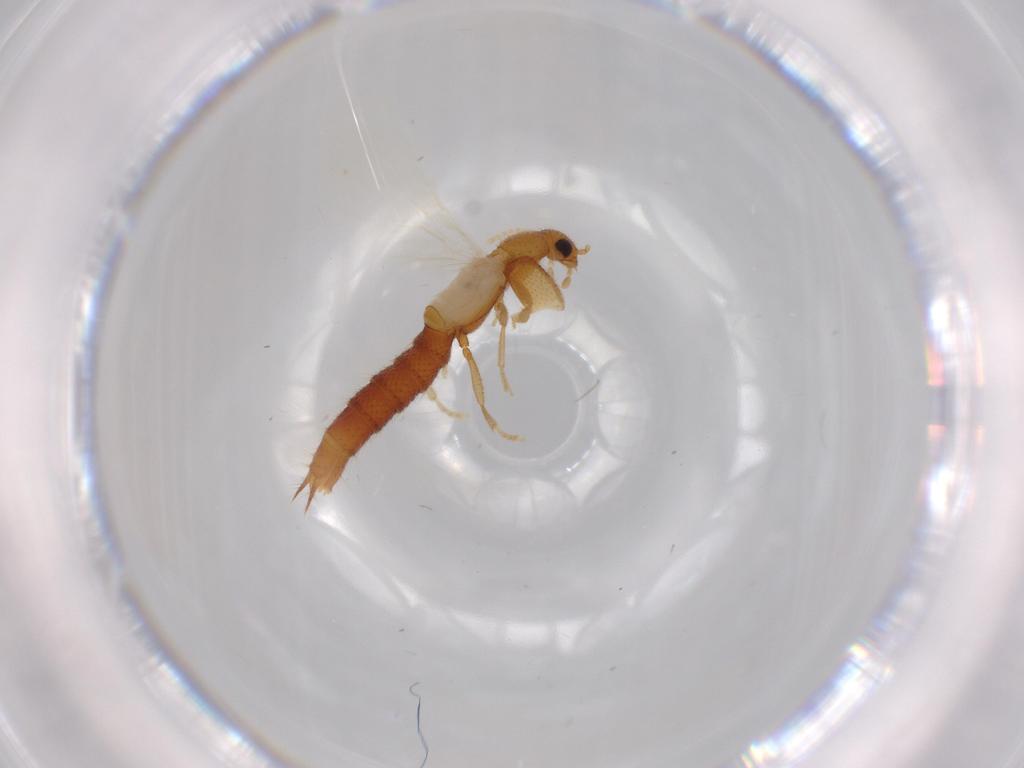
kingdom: Animalia
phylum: Arthropoda
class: Insecta
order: Coleoptera
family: Staphylinidae
